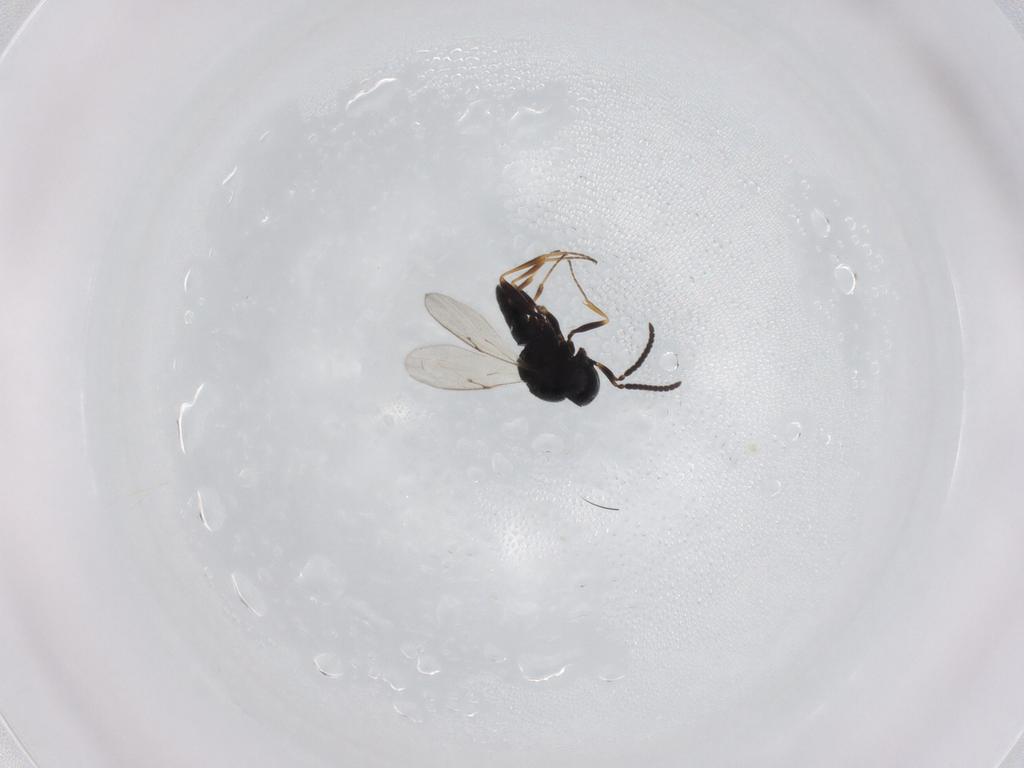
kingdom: Animalia
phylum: Arthropoda
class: Insecta
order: Hymenoptera
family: Scelionidae
